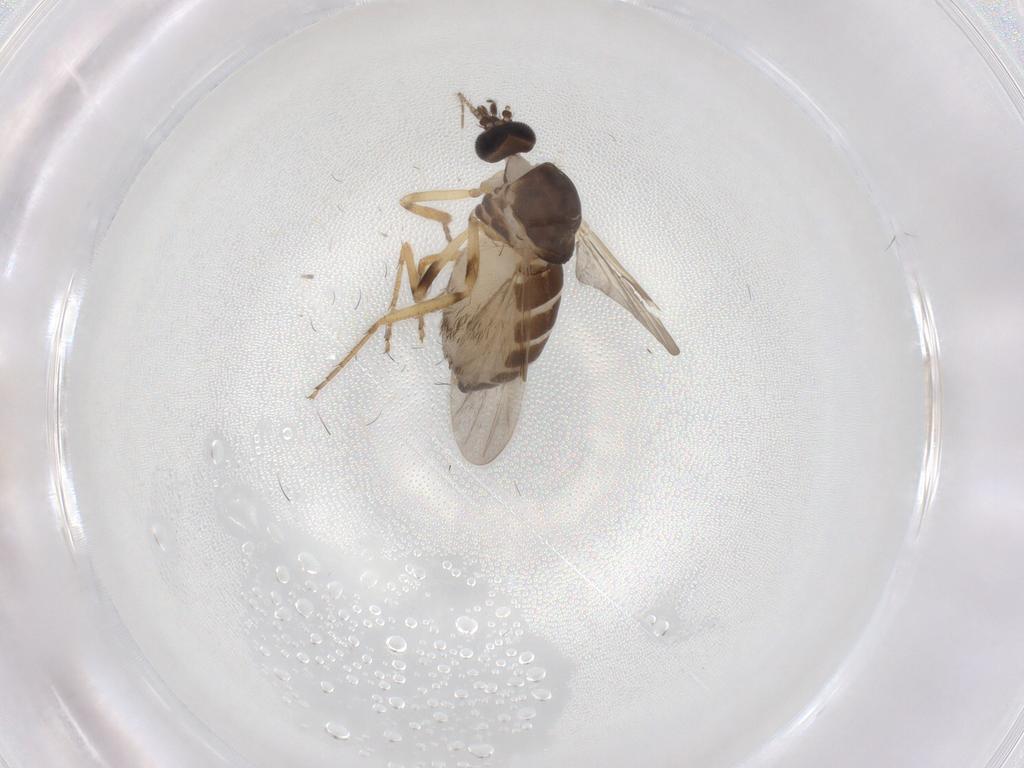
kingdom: Animalia
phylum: Arthropoda
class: Insecta
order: Diptera
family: Ceratopogonidae
